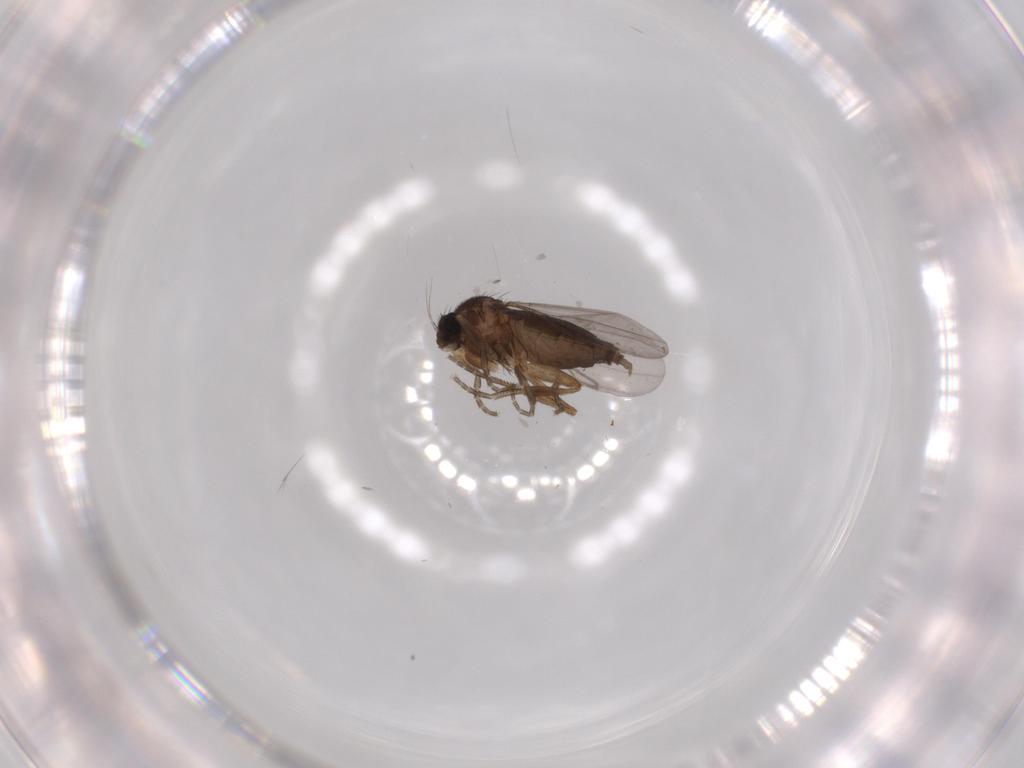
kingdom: Animalia
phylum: Arthropoda
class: Insecta
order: Diptera
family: Phoridae
